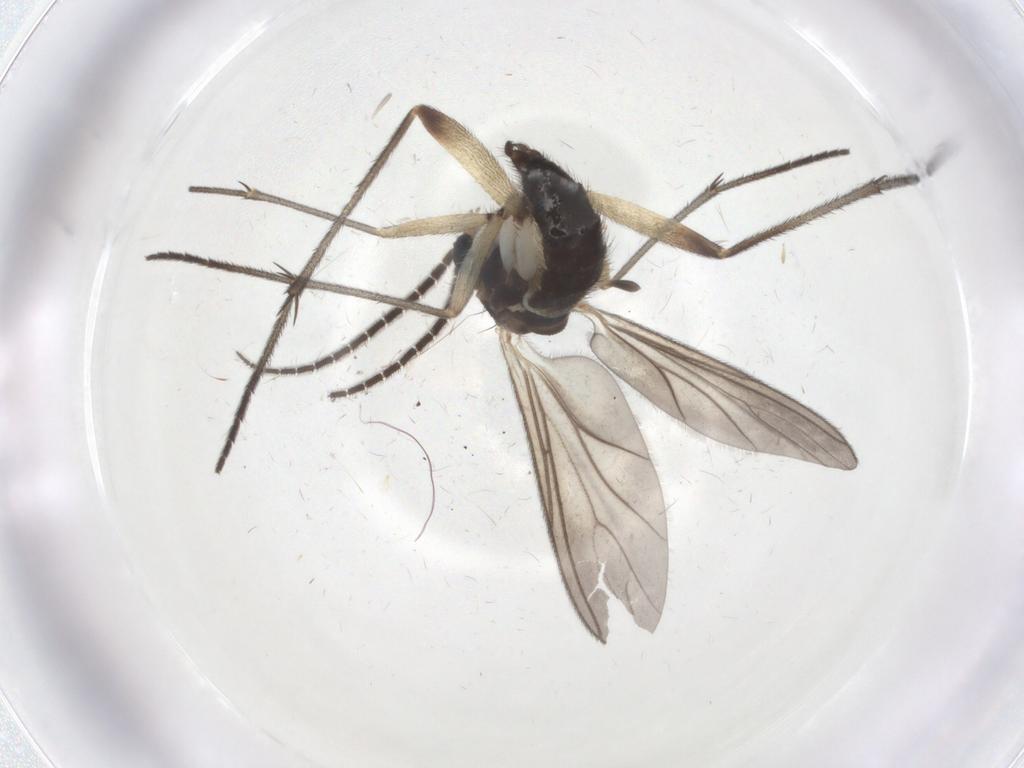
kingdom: Animalia
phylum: Arthropoda
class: Insecta
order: Diptera
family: Sciaridae
